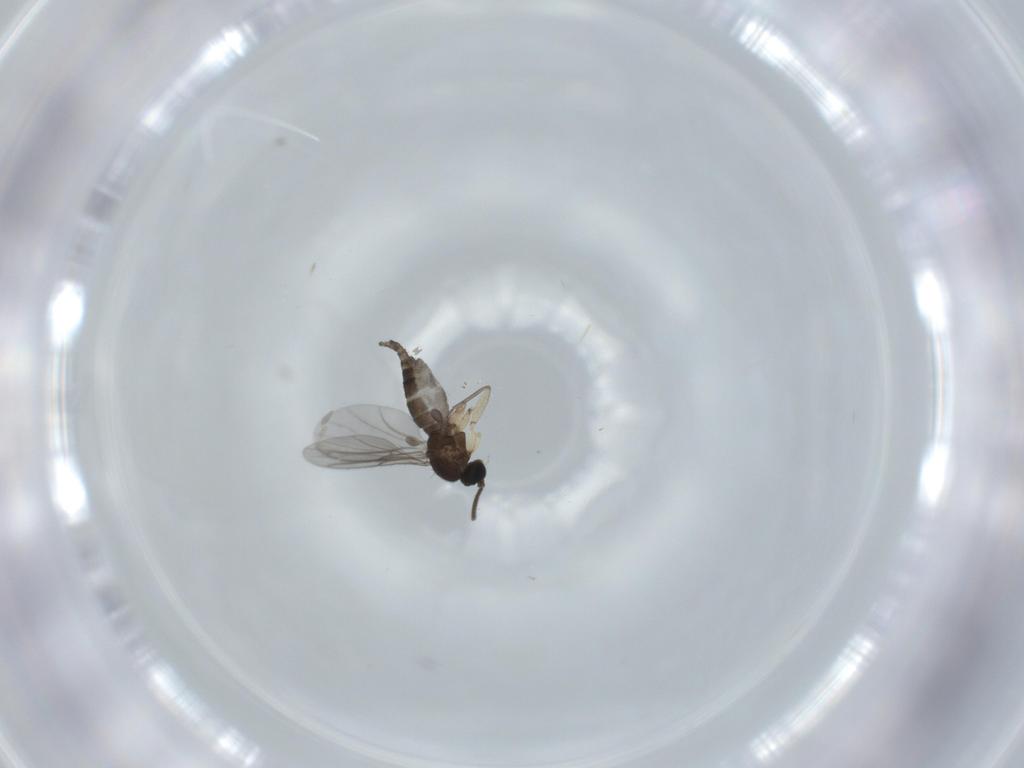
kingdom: Animalia
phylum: Arthropoda
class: Insecta
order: Diptera
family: Sciaridae
